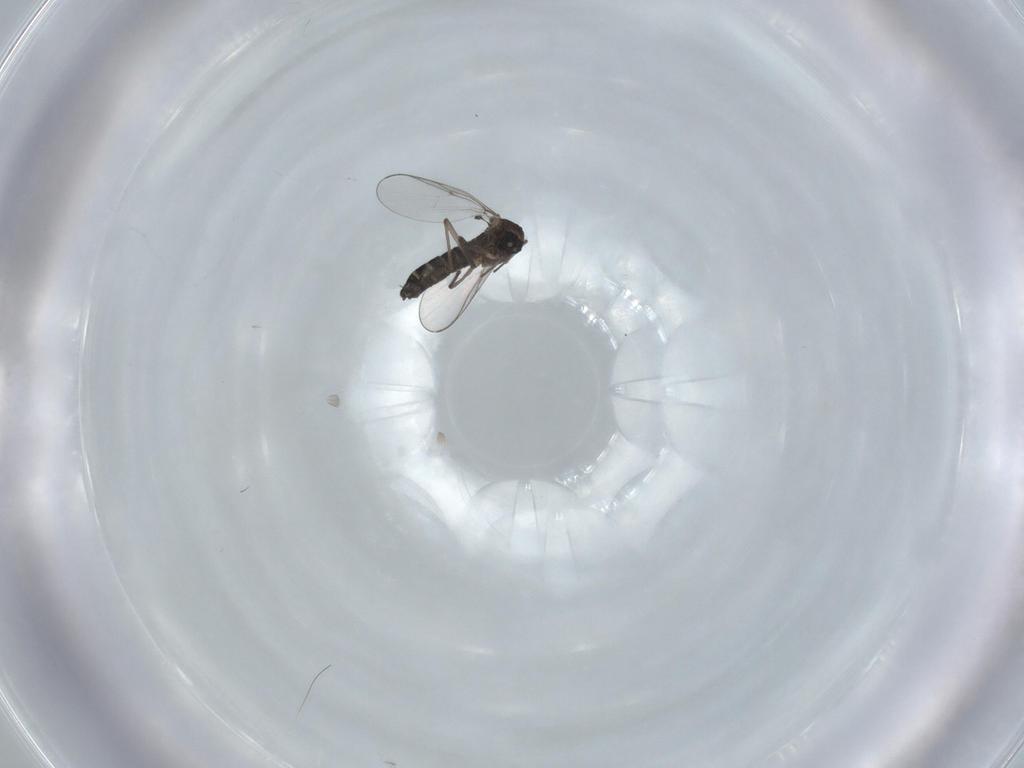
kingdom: Animalia
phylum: Arthropoda
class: Insecta
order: Diptera
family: Chironomidae
